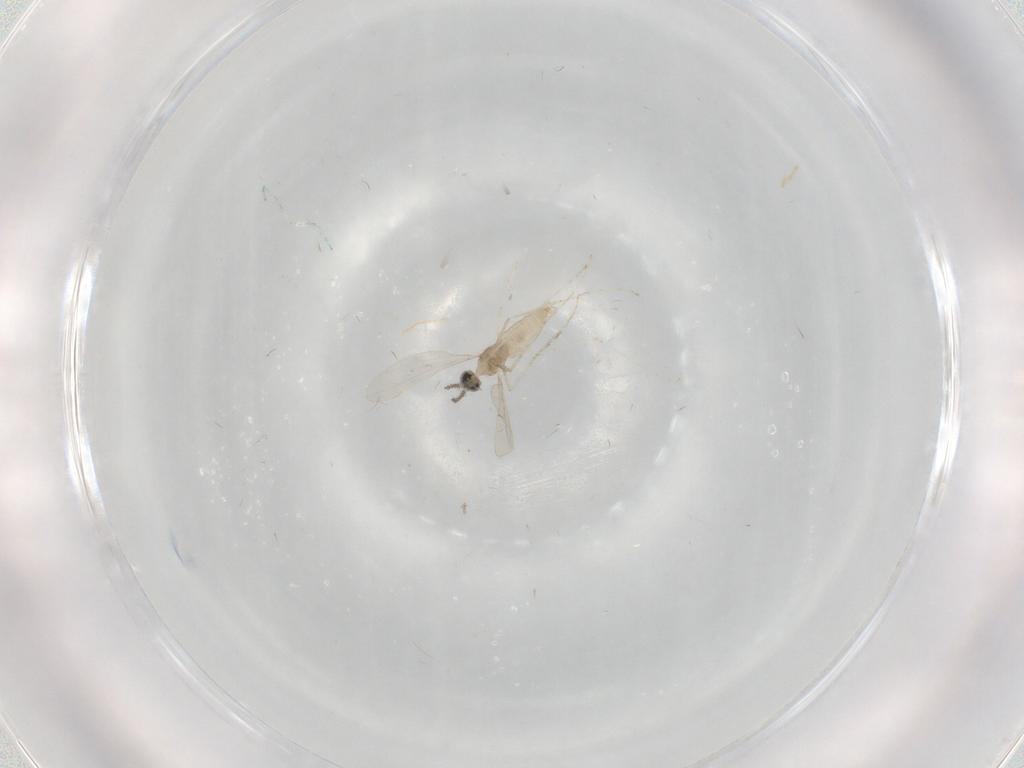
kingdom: Animalia
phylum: Arthropoda
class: Insecta
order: Diptera
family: Cecidomyiidae
